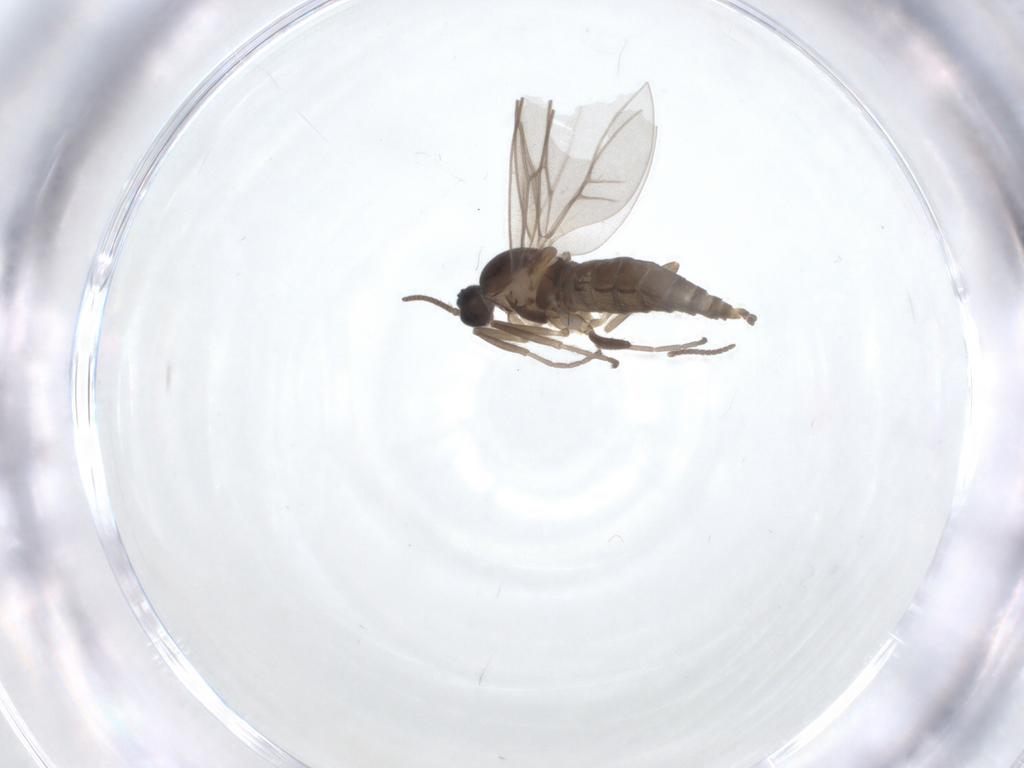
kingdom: Animalia
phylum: Arthropoda
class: Insecta
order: Diptera
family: Cecidomyiidae
